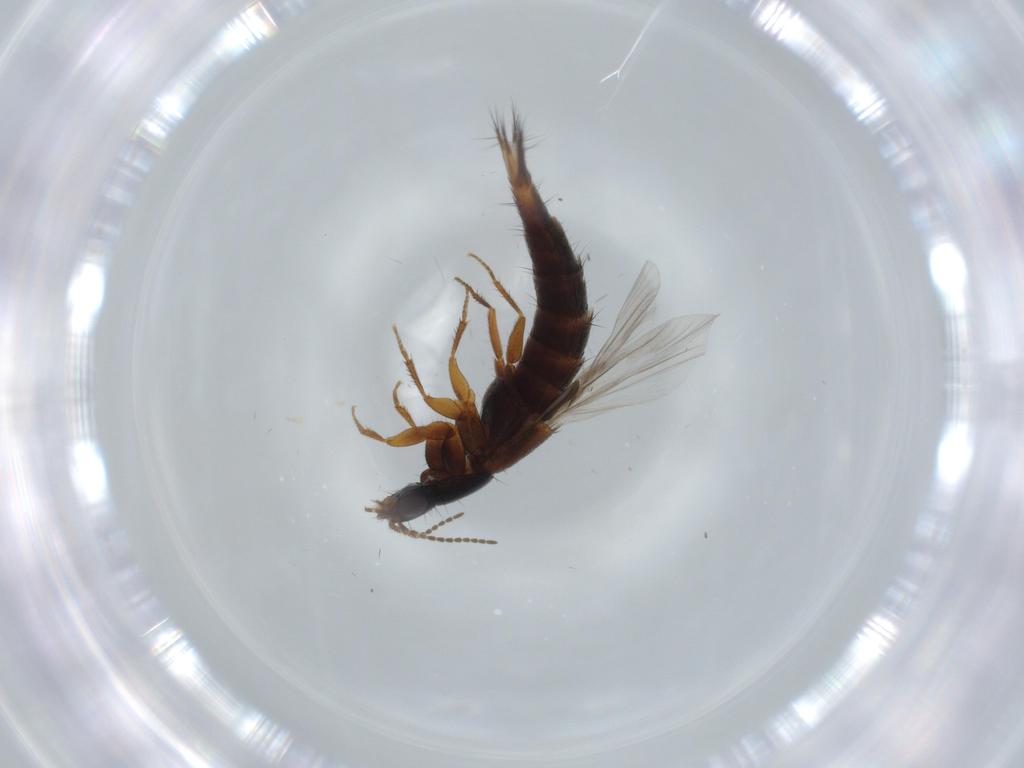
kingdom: Animalia
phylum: Arthropoda
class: Insecta
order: Coleoptera
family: Staphylinidae
